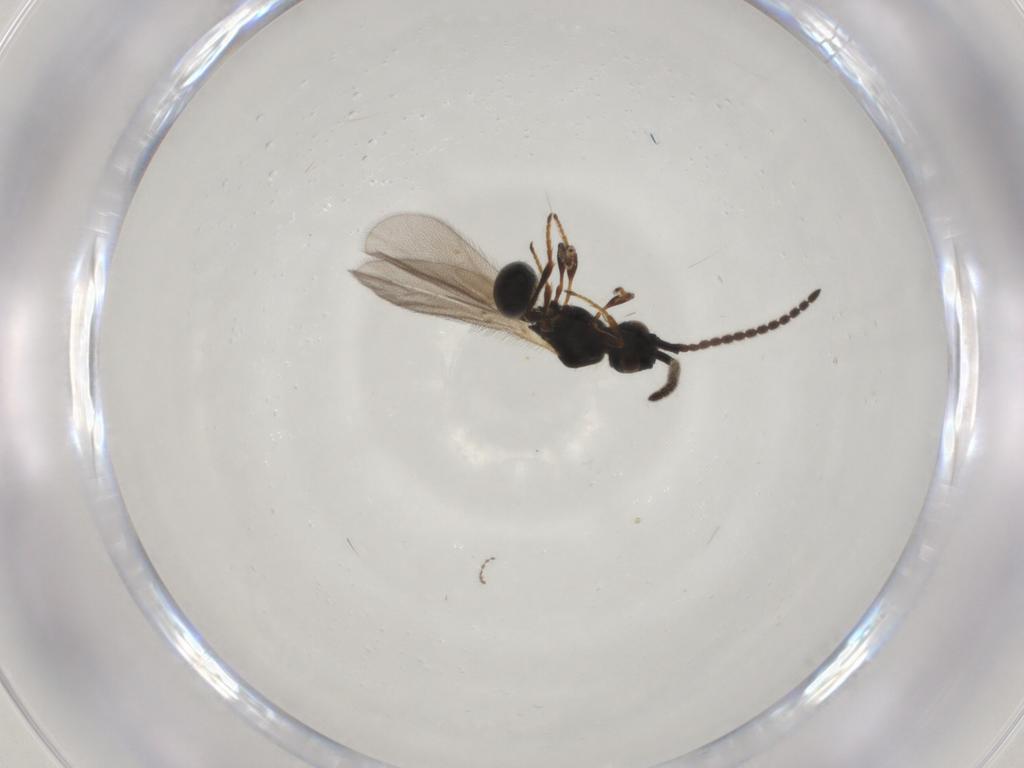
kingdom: Animalia
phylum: Arthropoda
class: Insecta
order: Hymenoptera
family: Diapriidae
